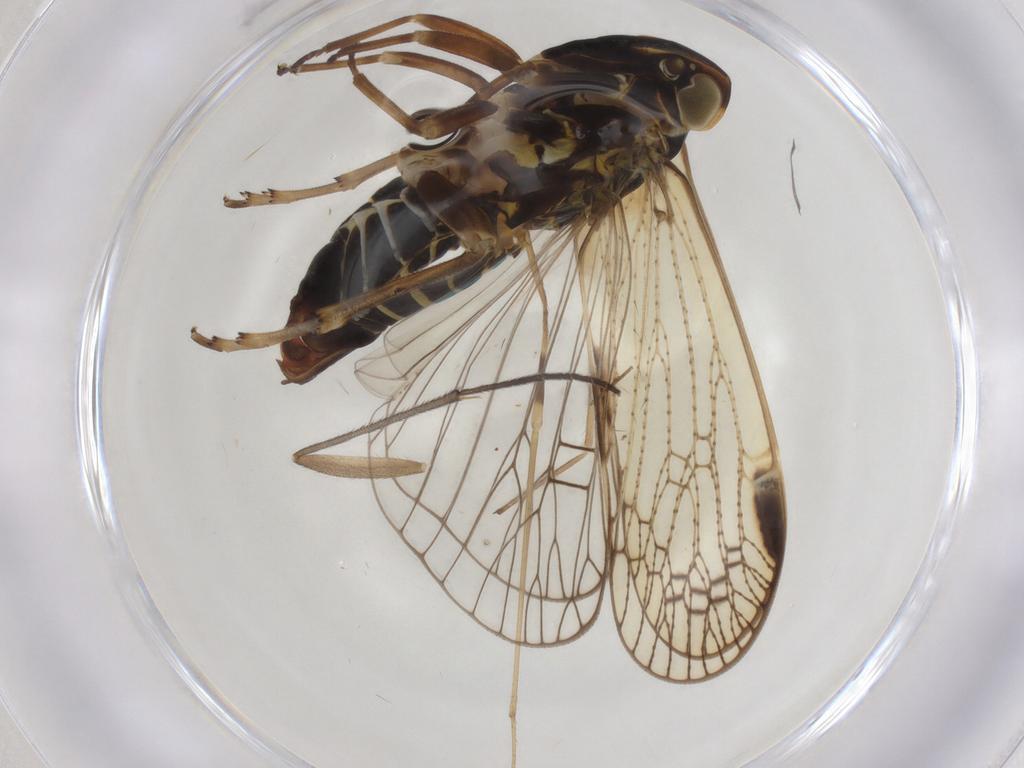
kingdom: Animalia
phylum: Arthropoda
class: Insecta
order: Hemiptera
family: Cixiidae
